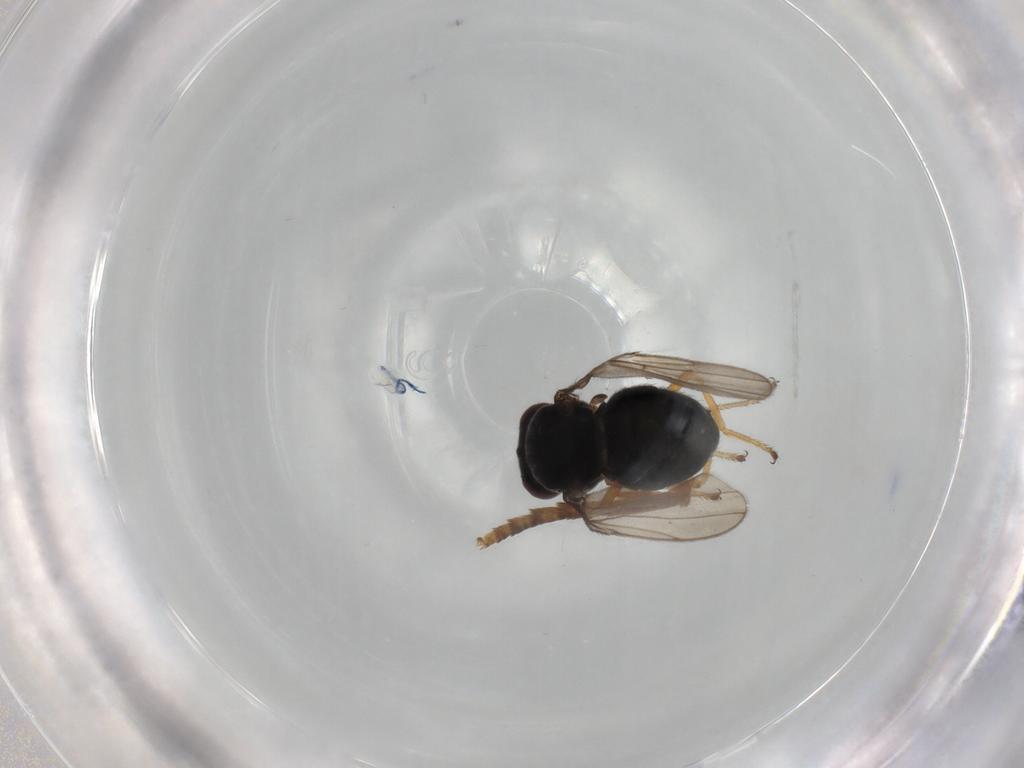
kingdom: Animalia
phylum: Arthropoda
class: Insecta
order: Diptera
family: Ephydridae
